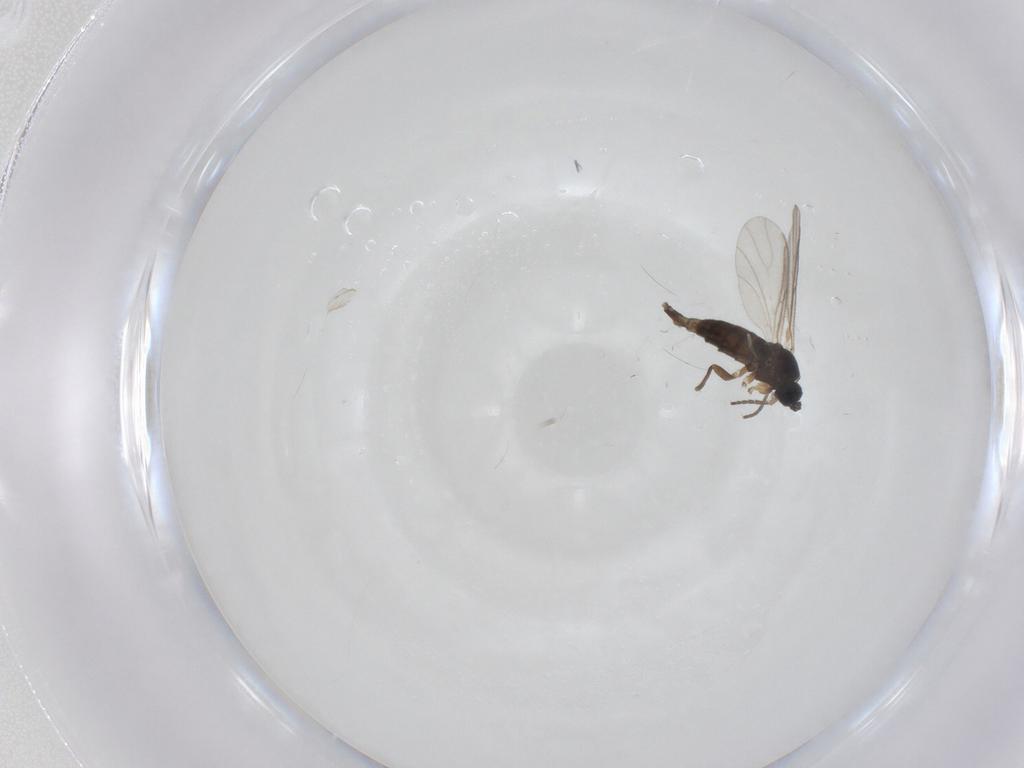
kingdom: Animalia
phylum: Arthropoda
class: Insecta
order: Diptera
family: Sciaridae
